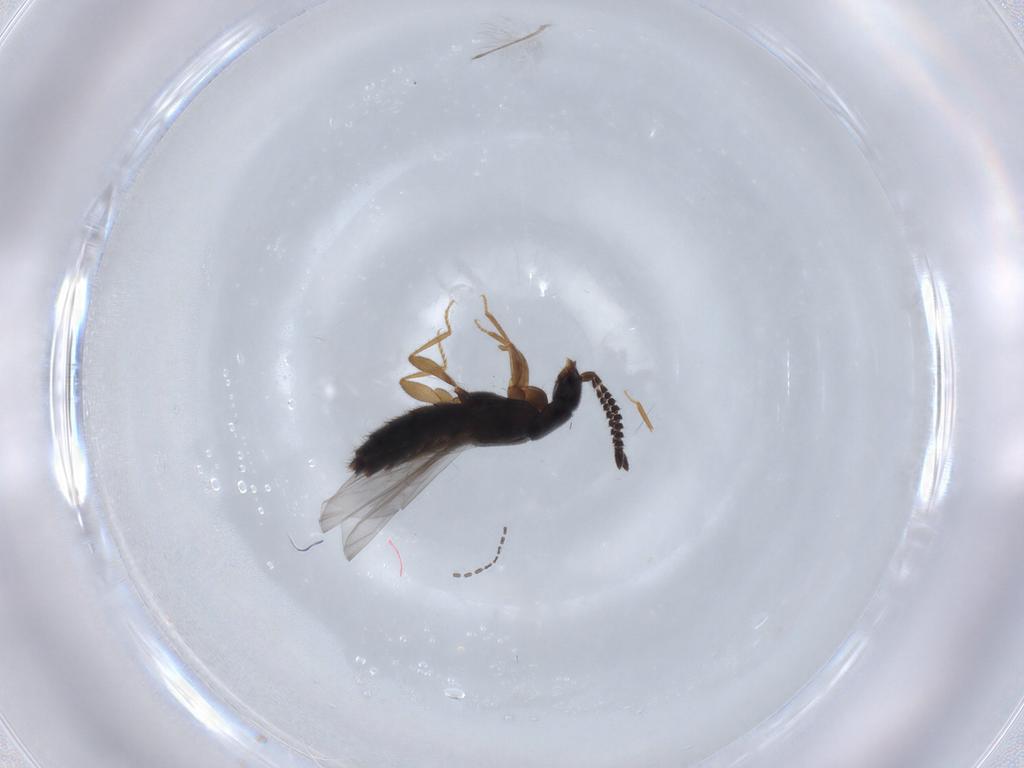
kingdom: Animalia
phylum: Arthropoda
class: Insecta
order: Coleoptera
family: Staphylinidae
